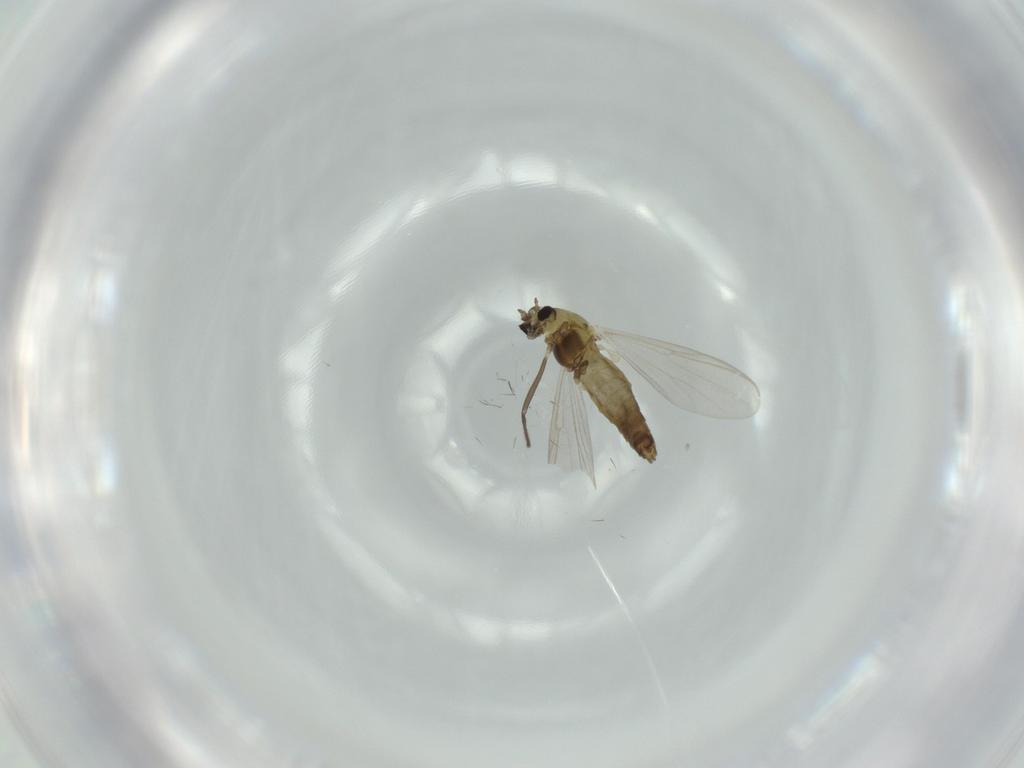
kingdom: Animalia
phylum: Arthropoda
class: Insecta
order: Diptera
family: Chironomidae
